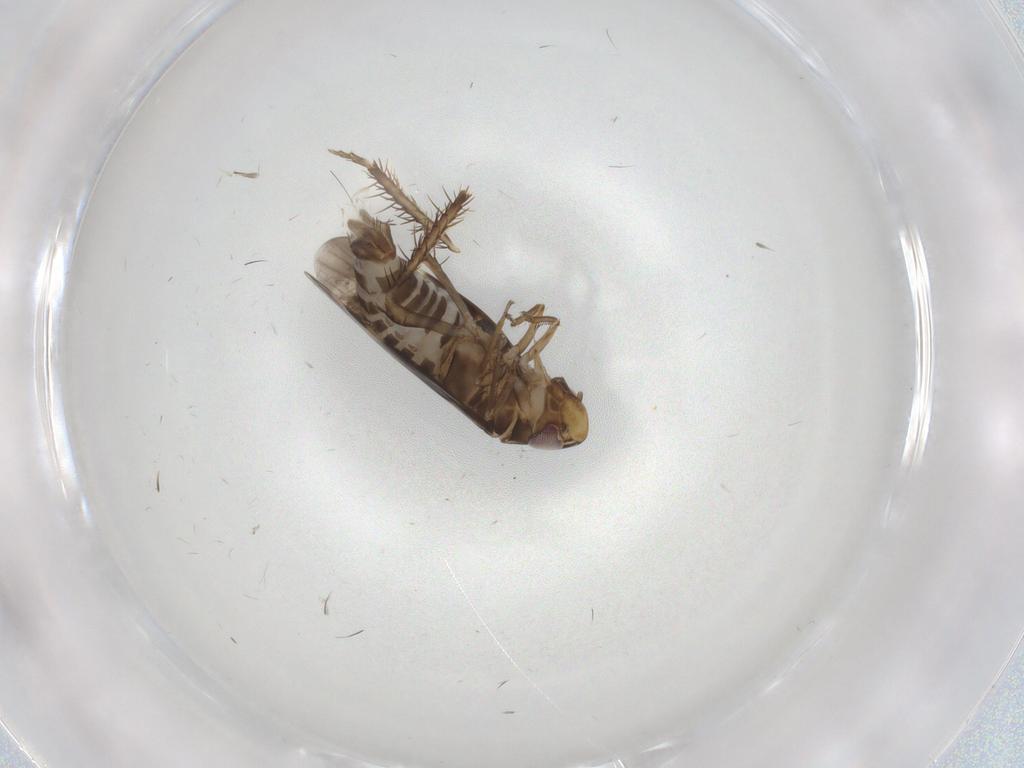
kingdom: Animalia
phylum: Arthropoda
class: Insecta
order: Hemiptera
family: Cicadellidae
